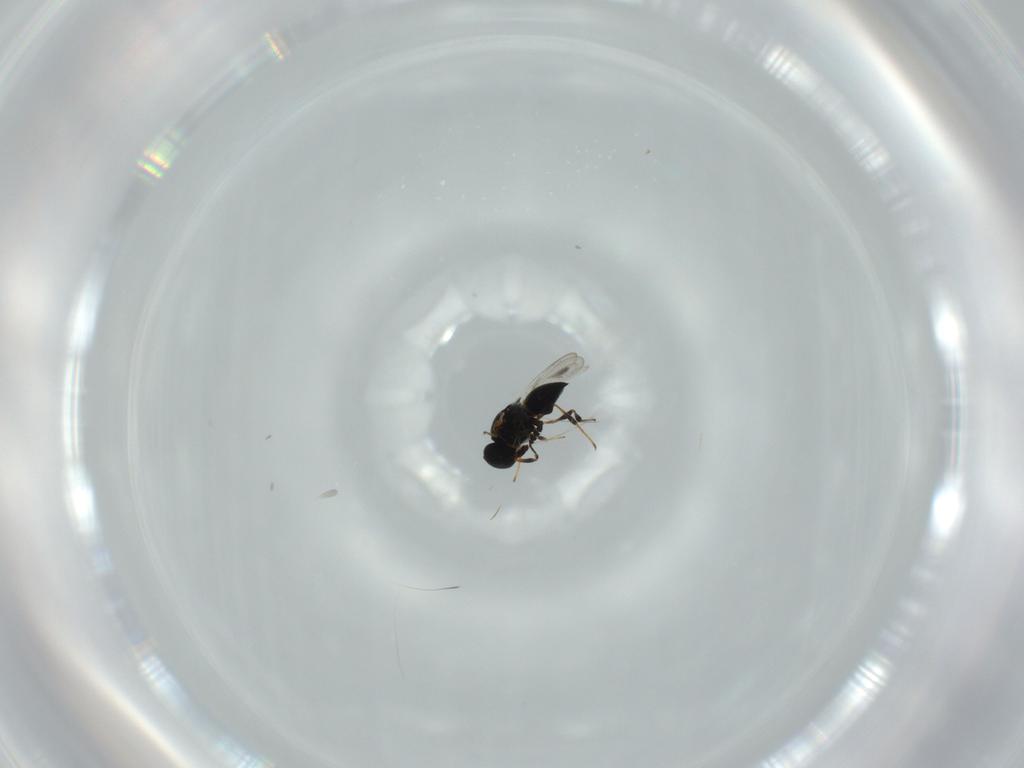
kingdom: Animalia
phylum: Arthropoda
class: Insecta
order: Hymenoptera
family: Platygastridae
